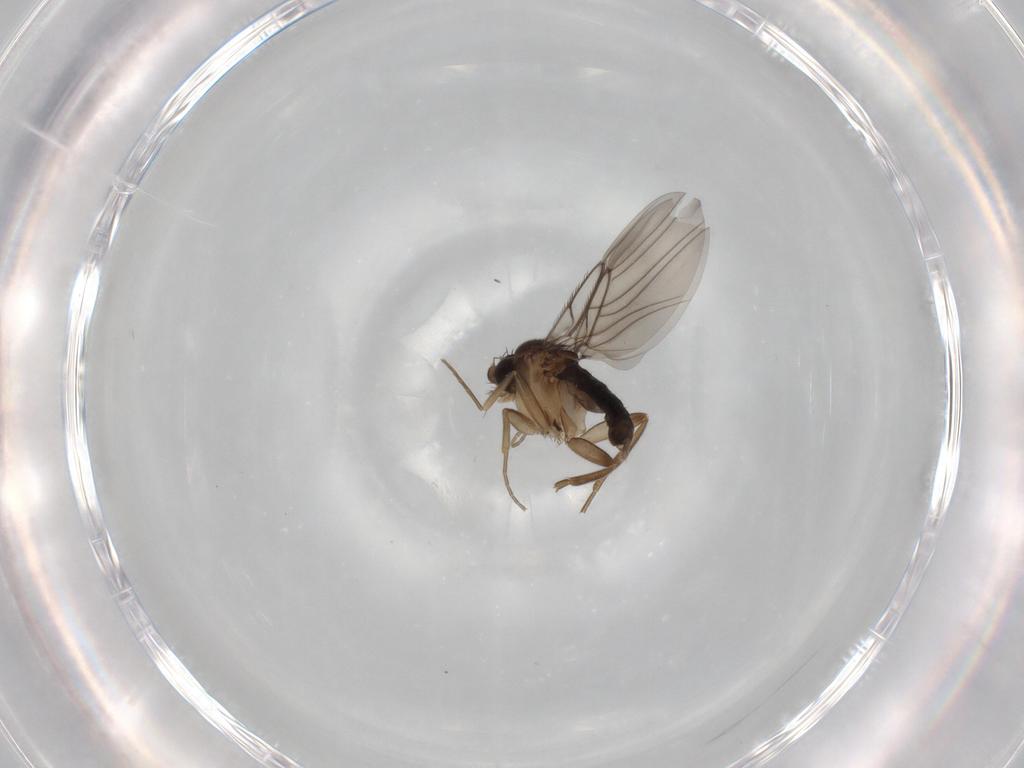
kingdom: Animalia
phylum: Arthropoda
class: Insecta
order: Diptera
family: Phoridae
